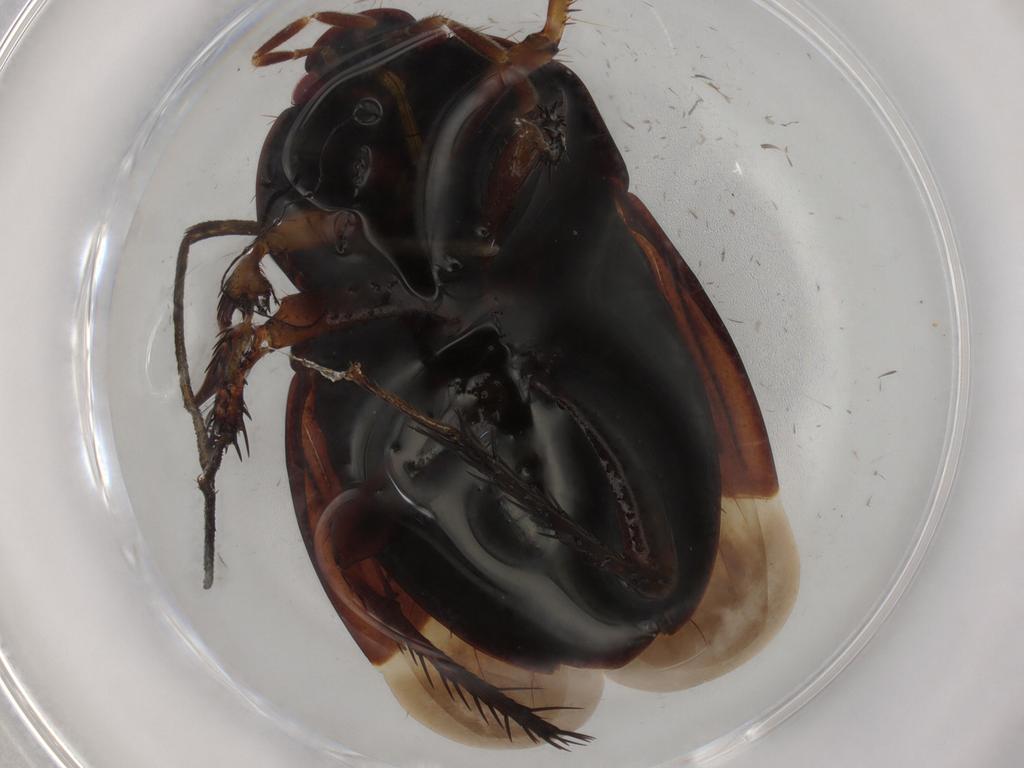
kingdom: Animalia
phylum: Arthropoda
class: Insecta
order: Hemiptera
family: Cydnidae
